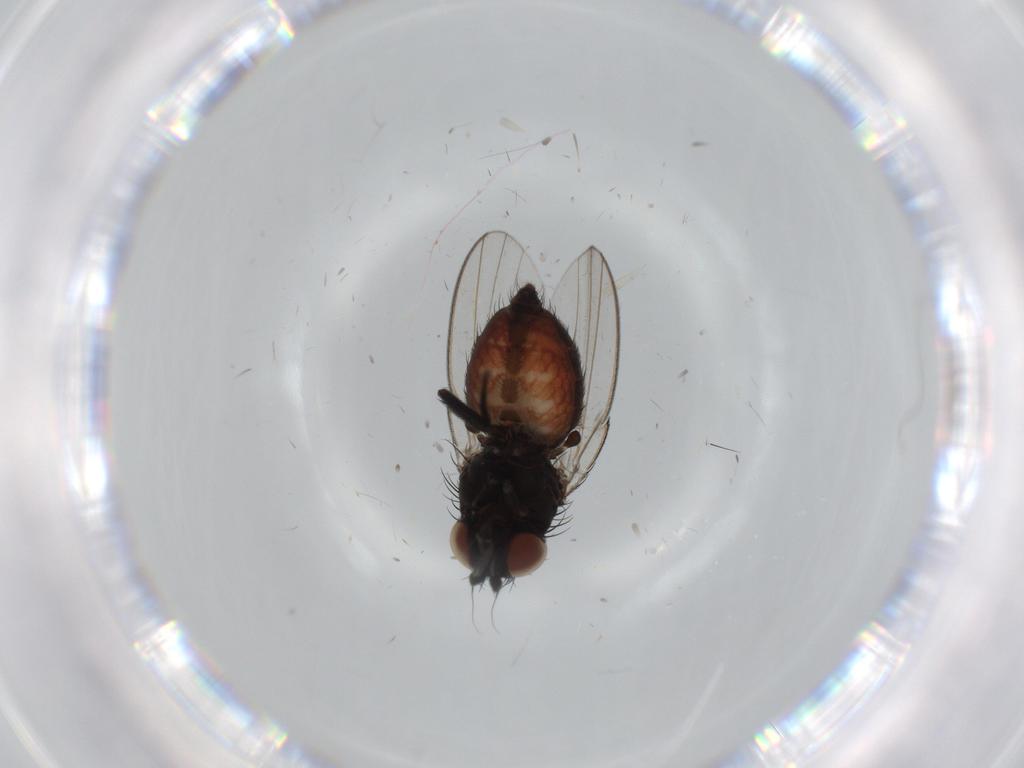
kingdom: Animalia
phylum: Arthropoda
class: Insecta
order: Diptera
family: Milichiidae
